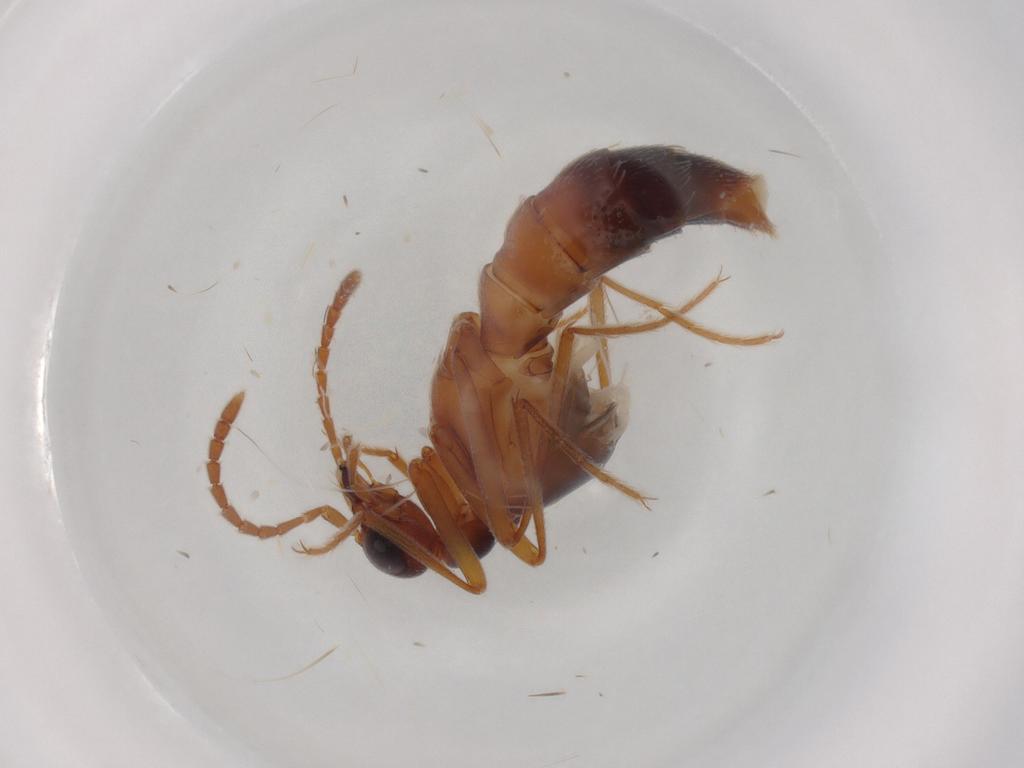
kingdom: Animalia
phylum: Arthropoda
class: Insecta
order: Coleoptera
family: Staphylinidae
